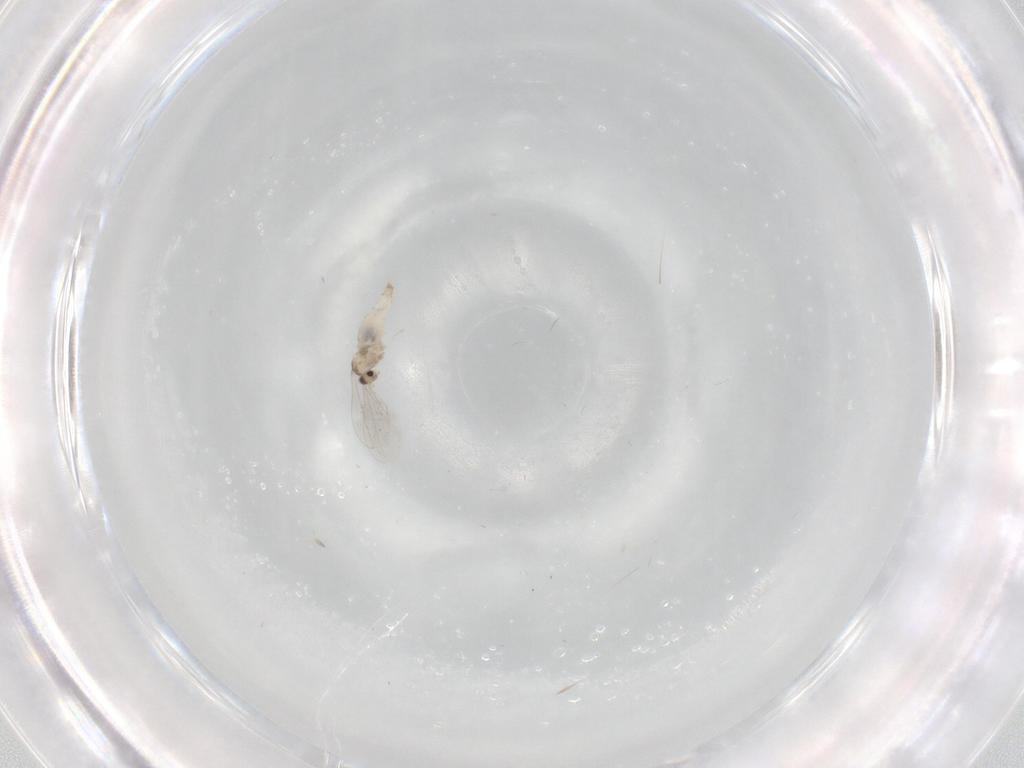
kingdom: Animalia
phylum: Arthropoda
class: Insecta
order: Diptera
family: Cecidomyiidae
